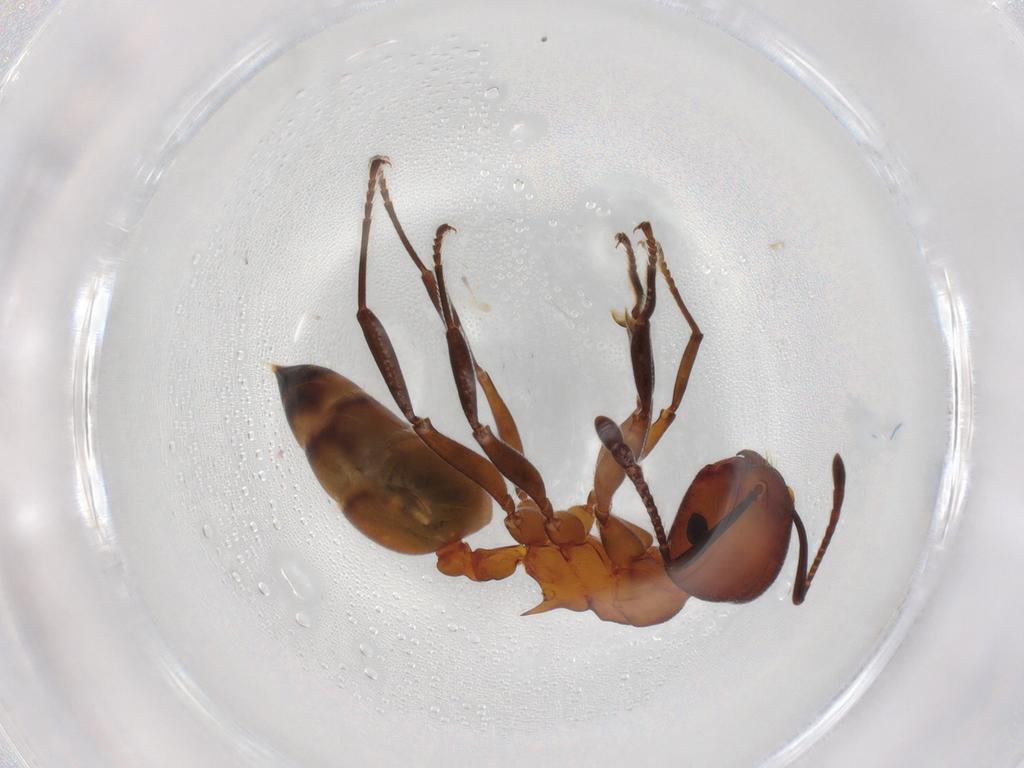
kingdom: Animalia
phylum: Arthropoda
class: Insecta
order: Hymenoptera
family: Formicidae
